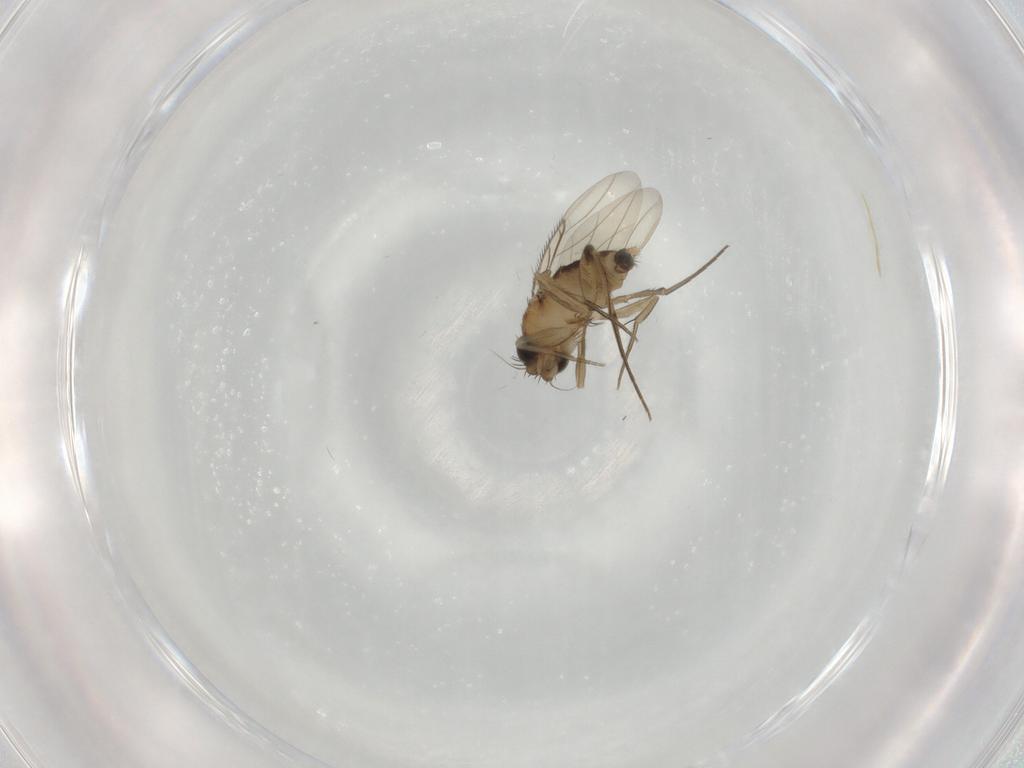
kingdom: Animalia
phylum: Arthropoda
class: Insecta
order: Diptera
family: Phoridae
